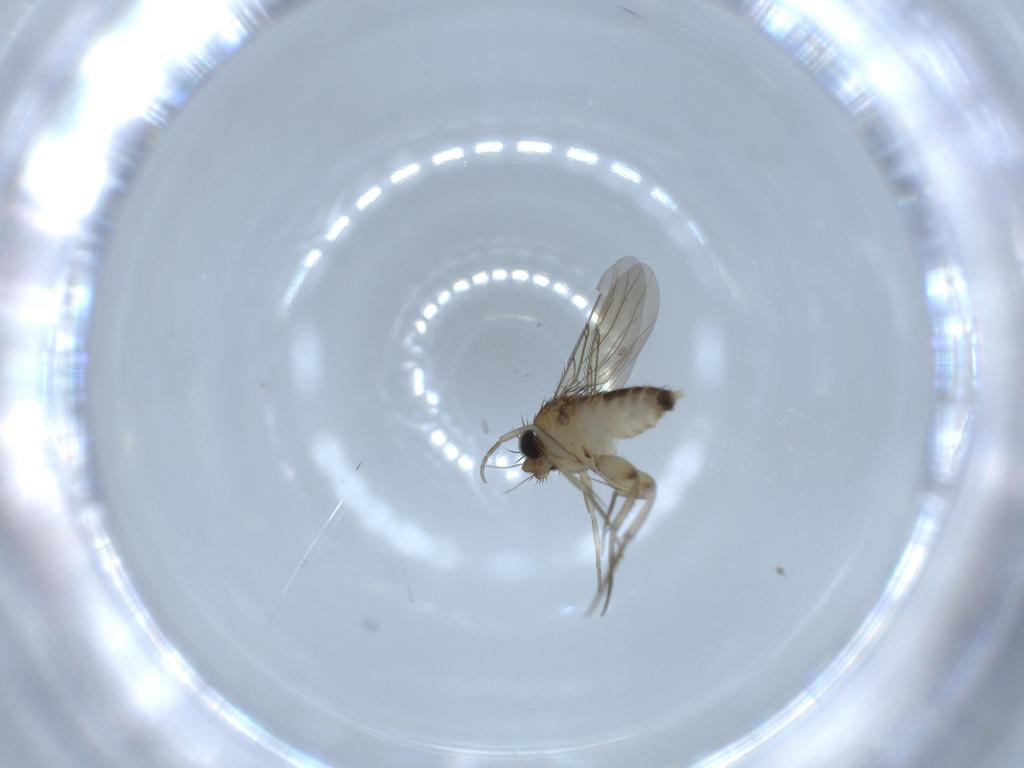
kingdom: Animalia
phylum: Arthropoda
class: Insecta
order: Diptera
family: Phoridae
